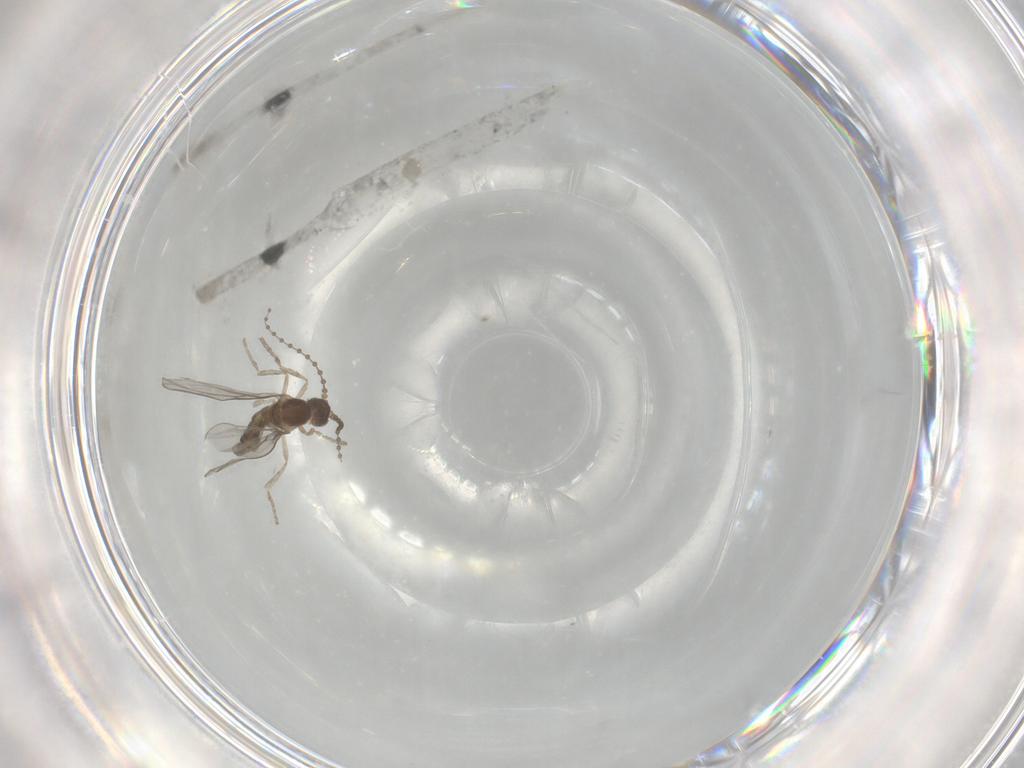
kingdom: Animalia
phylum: Arthropoda
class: Insecta
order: Diptera
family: Cecidomyiidae
